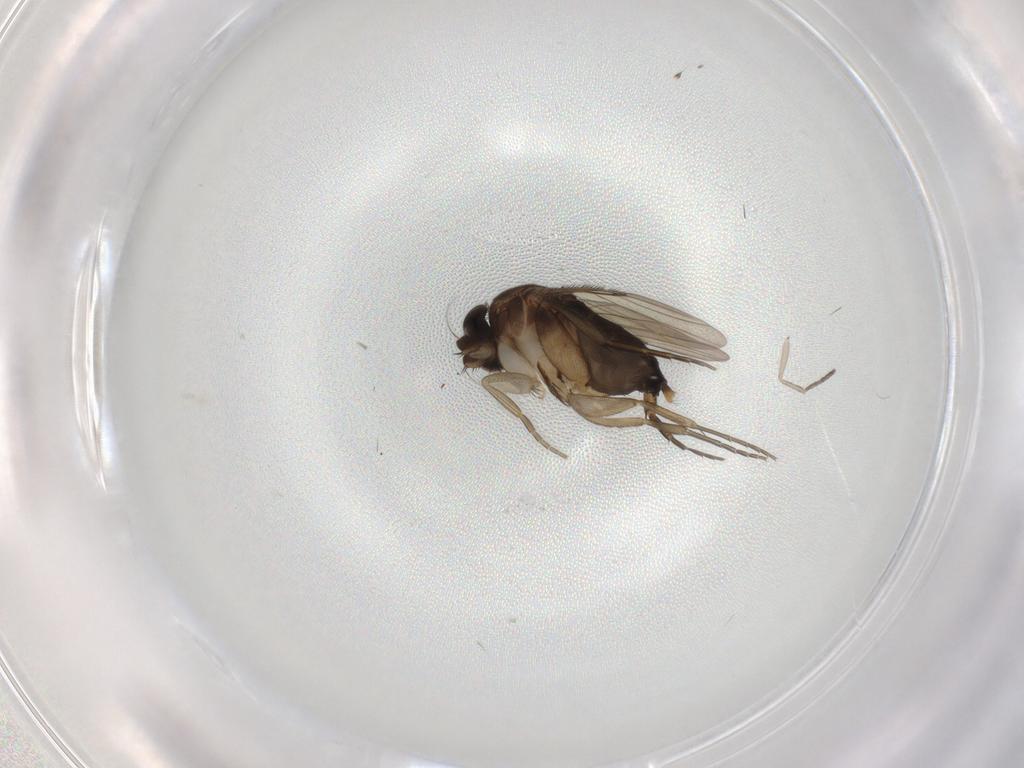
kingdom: Animalia
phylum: Arthropoda
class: Insecta
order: Diptera
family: Phoridae
